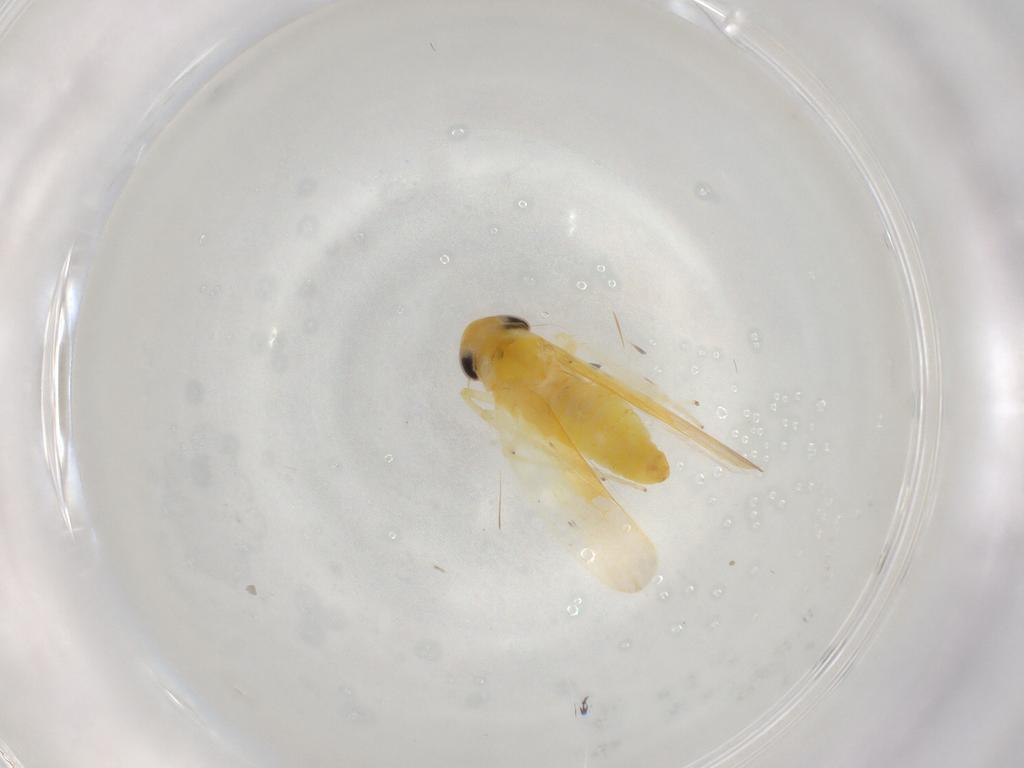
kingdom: Animalia
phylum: Arthropoda
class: Insecta
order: Hemiptera
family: Cicadellidae
